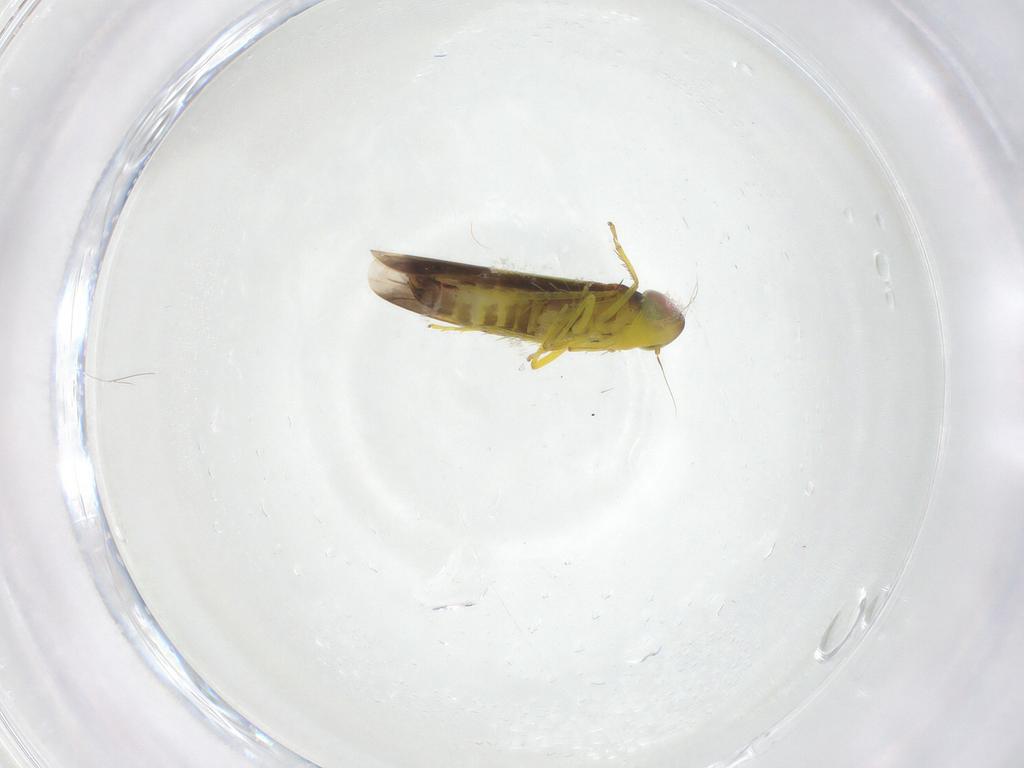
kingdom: Animalia
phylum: Arthropoda
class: Insecta
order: Hemiptera
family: Cicadellidae
